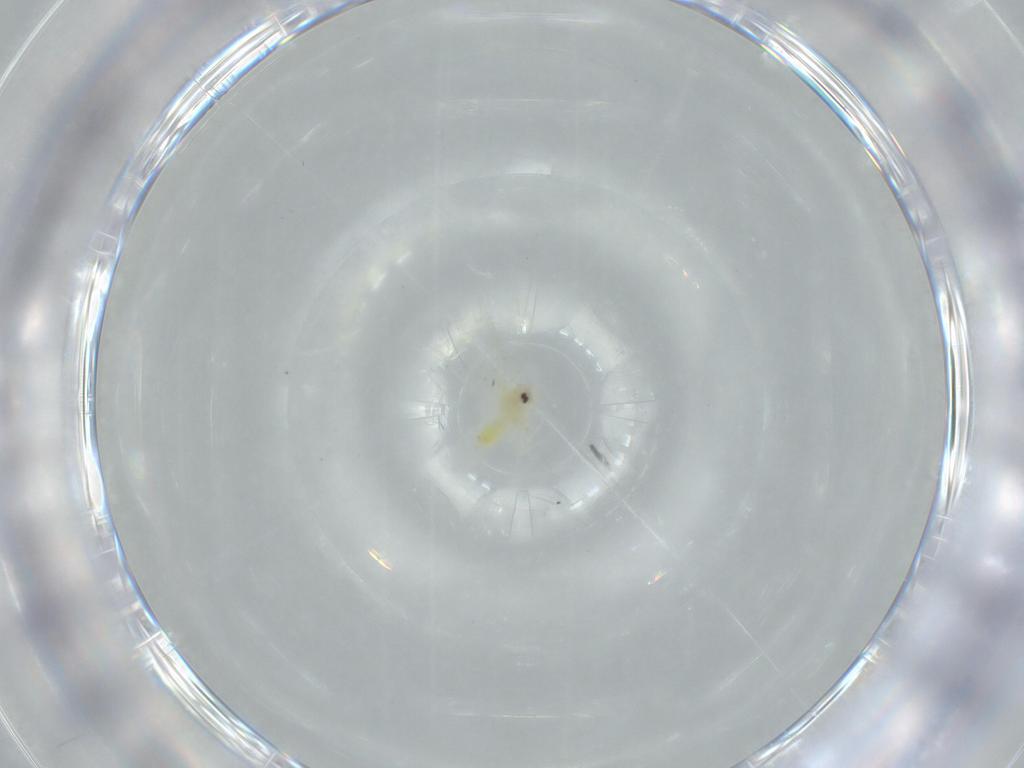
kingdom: Animalia
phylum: Arthropoda
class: Insecta
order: Hemiptera
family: Aleyrodidae
